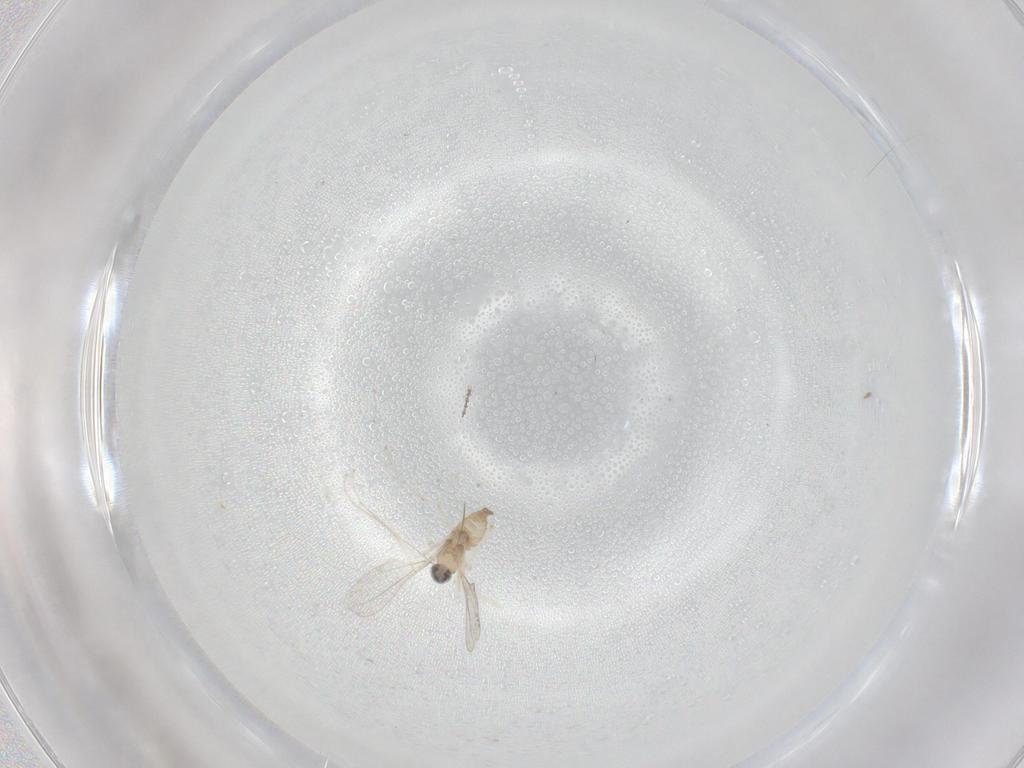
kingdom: Animalia
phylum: Arthropoda
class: Insecta
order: Diptera
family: Cecidomyiidae
